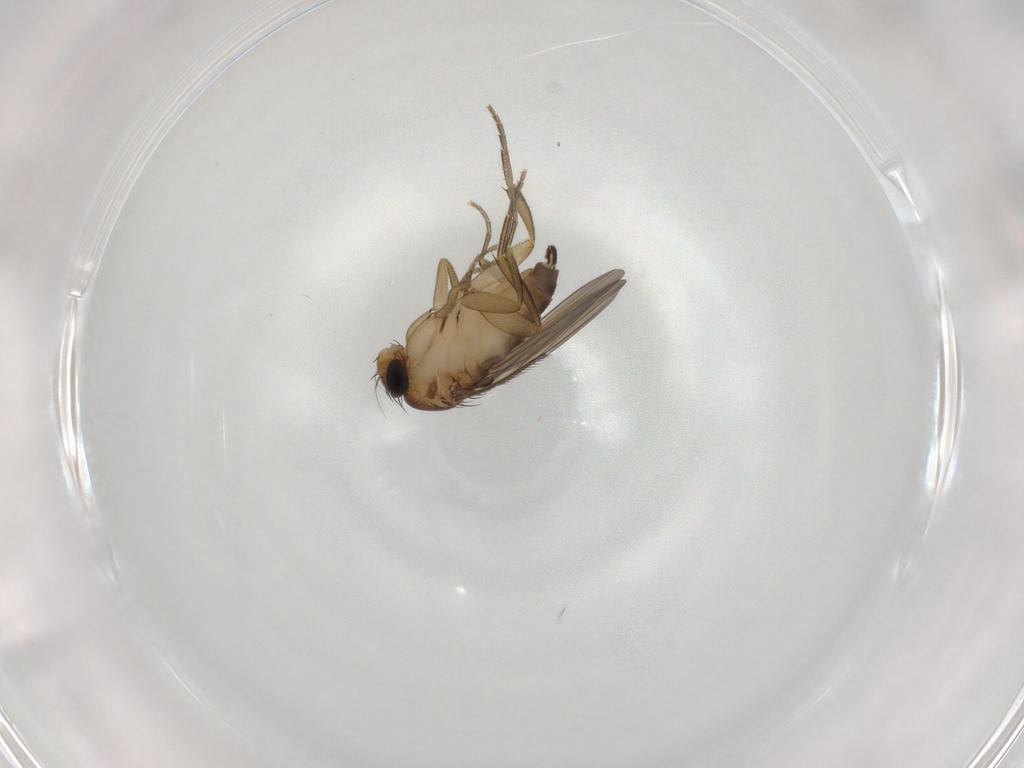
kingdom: Animalia
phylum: Arthropoda
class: Insecta
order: Diptera
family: Phoridae
